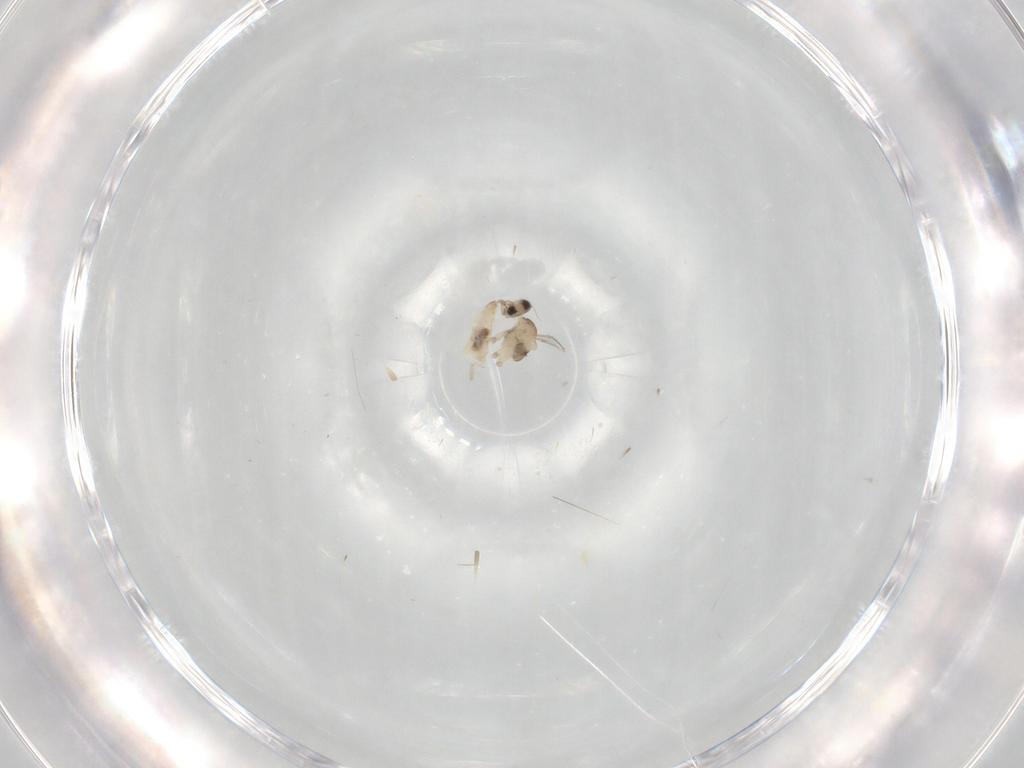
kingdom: Animalia
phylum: Arthropoda
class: Insecta
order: Diptera
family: Cecidomyiidae
